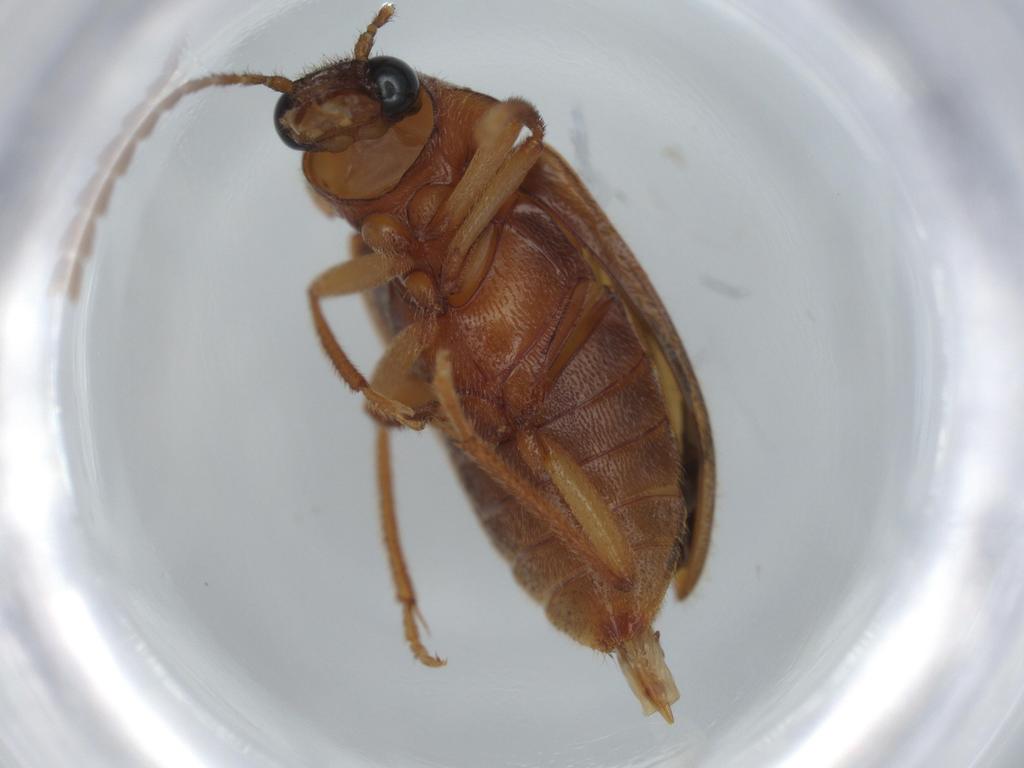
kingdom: Animalia
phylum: Arthropoda
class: Insecta
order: Coleoptera
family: Ptilodactylidae
